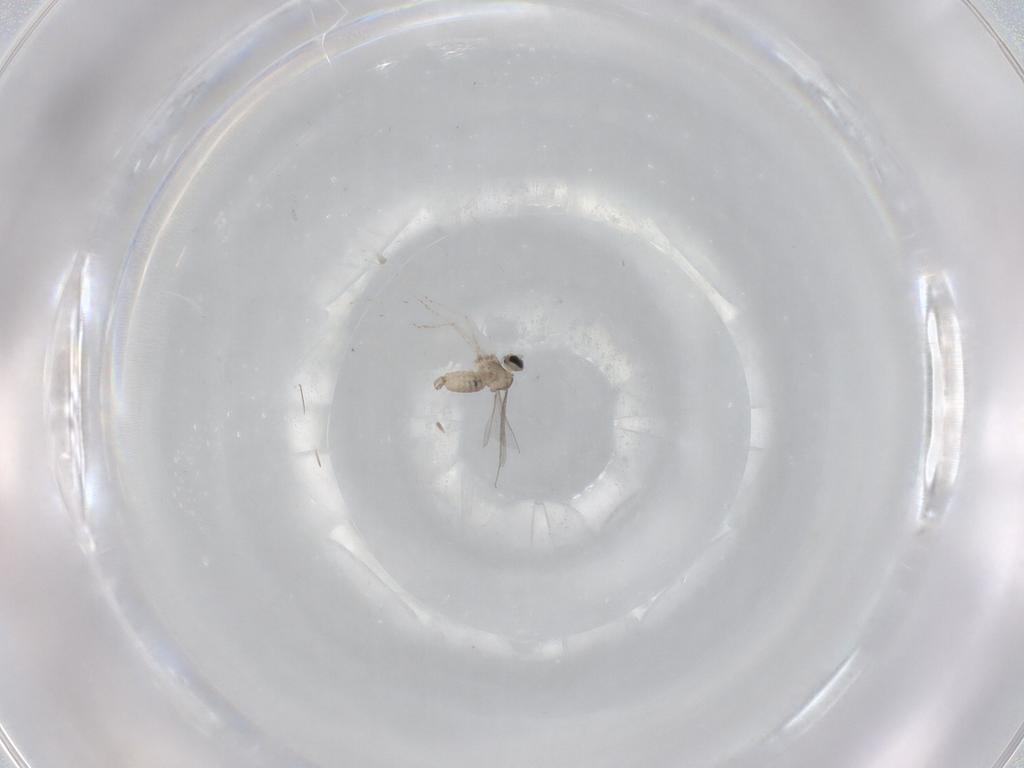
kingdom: Animalia
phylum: Arthropoda
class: Insecta
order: Diptera
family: Cecidomyiidae
